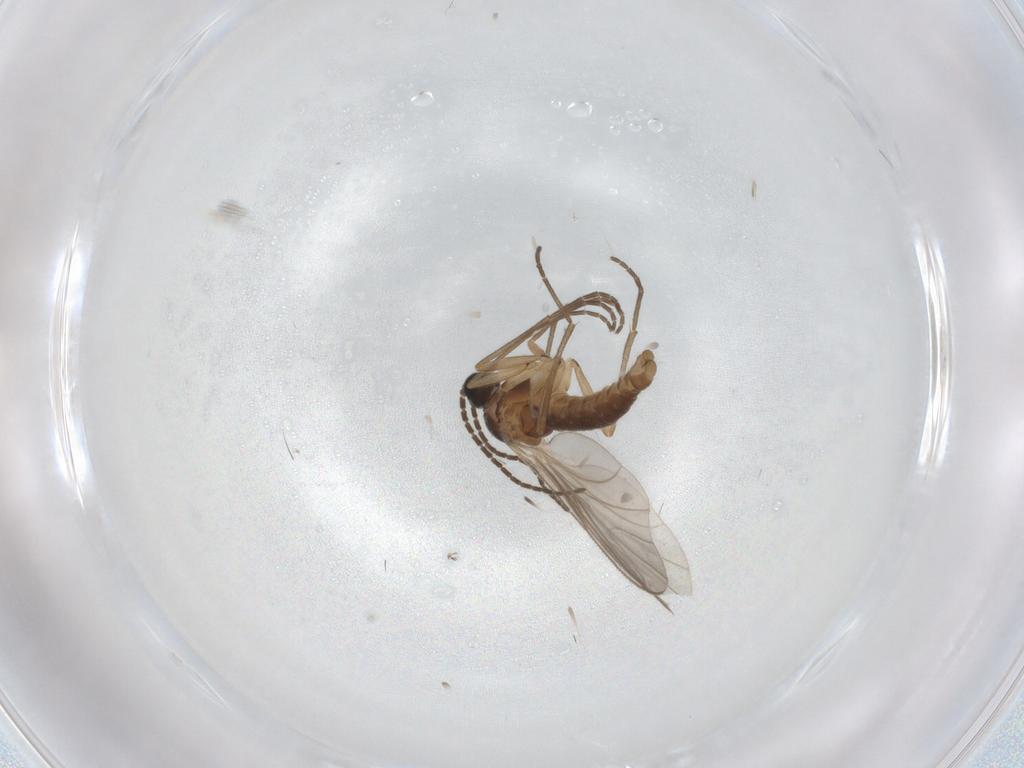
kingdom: Animalia
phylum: Arthropoda
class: Insecta
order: Diptera
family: Sciaridae
